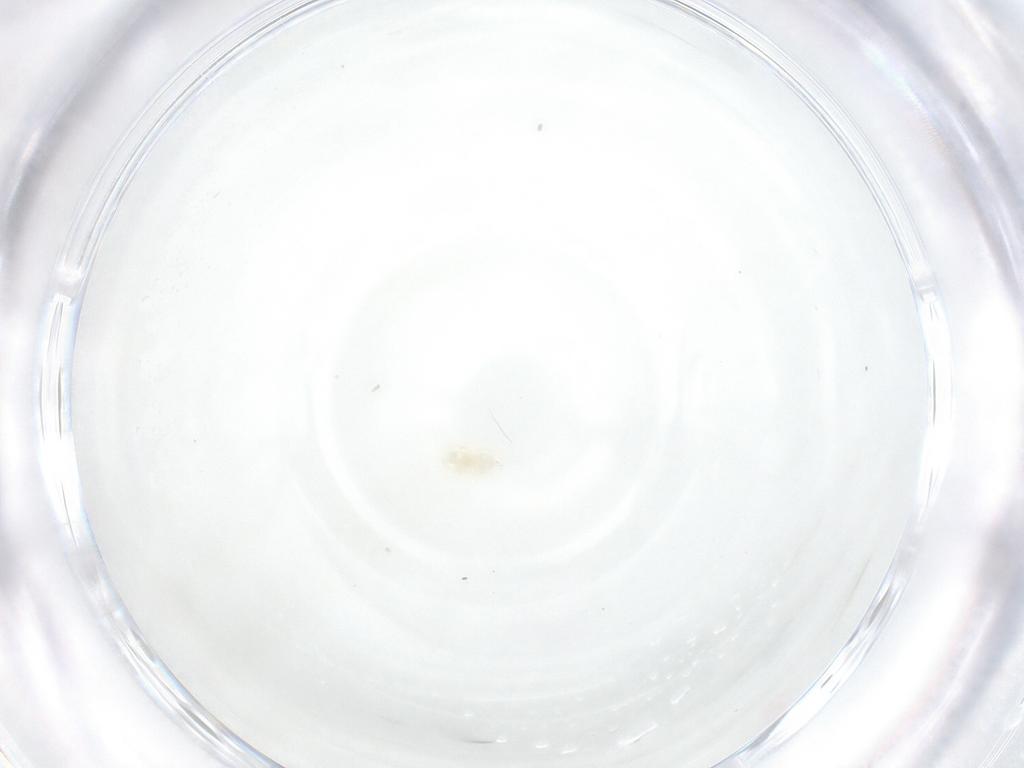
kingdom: Animalia
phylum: Arthropoda
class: Arachnida
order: Trombidiformes
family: Eupodidae
